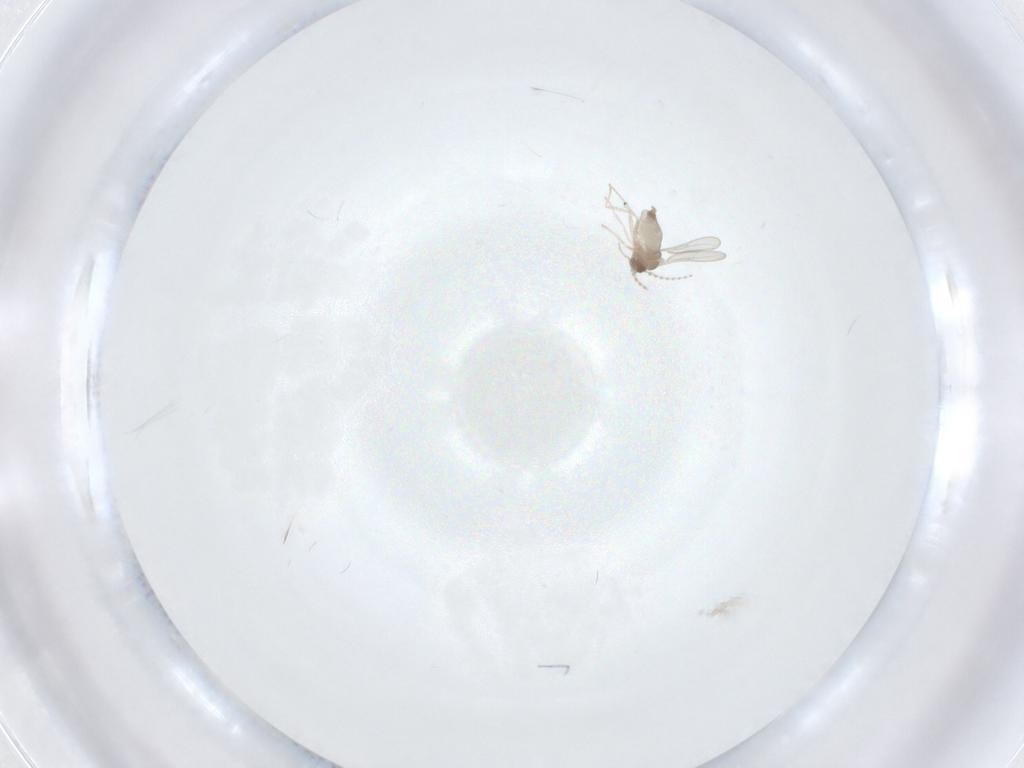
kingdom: Animalia
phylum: Arthropoda
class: Insecta
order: Diptera
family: Cecidomyiidae
